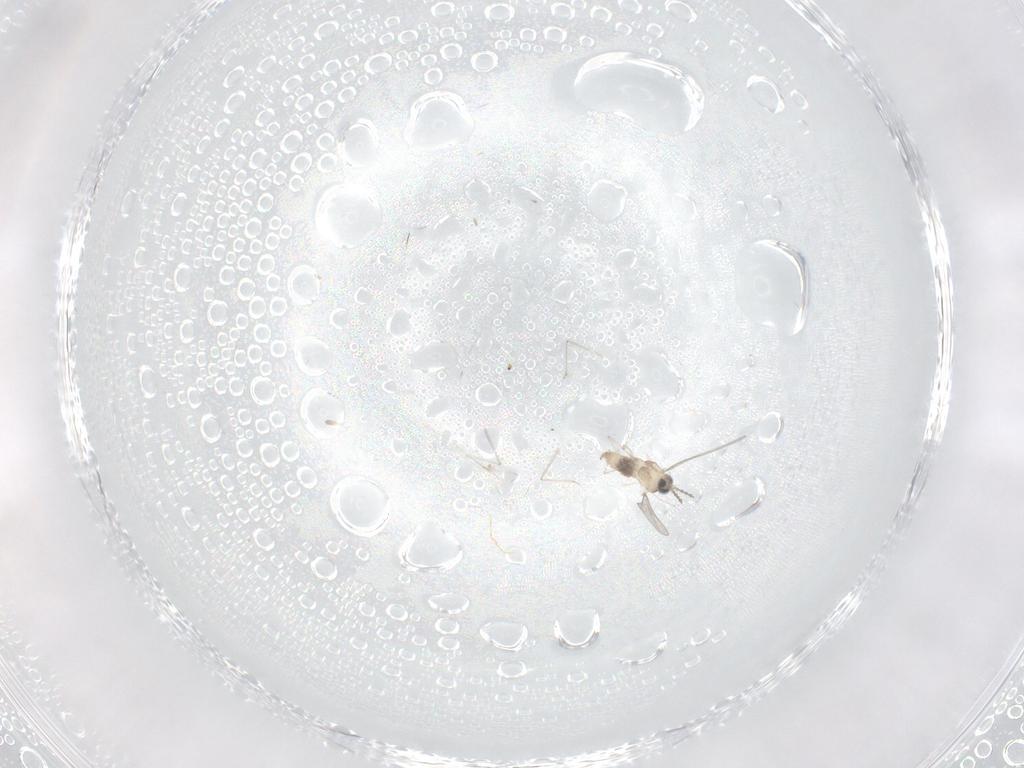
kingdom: Animalia
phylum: Arthropoda
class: Insecta
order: Diptera
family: Cecidomyiidae
